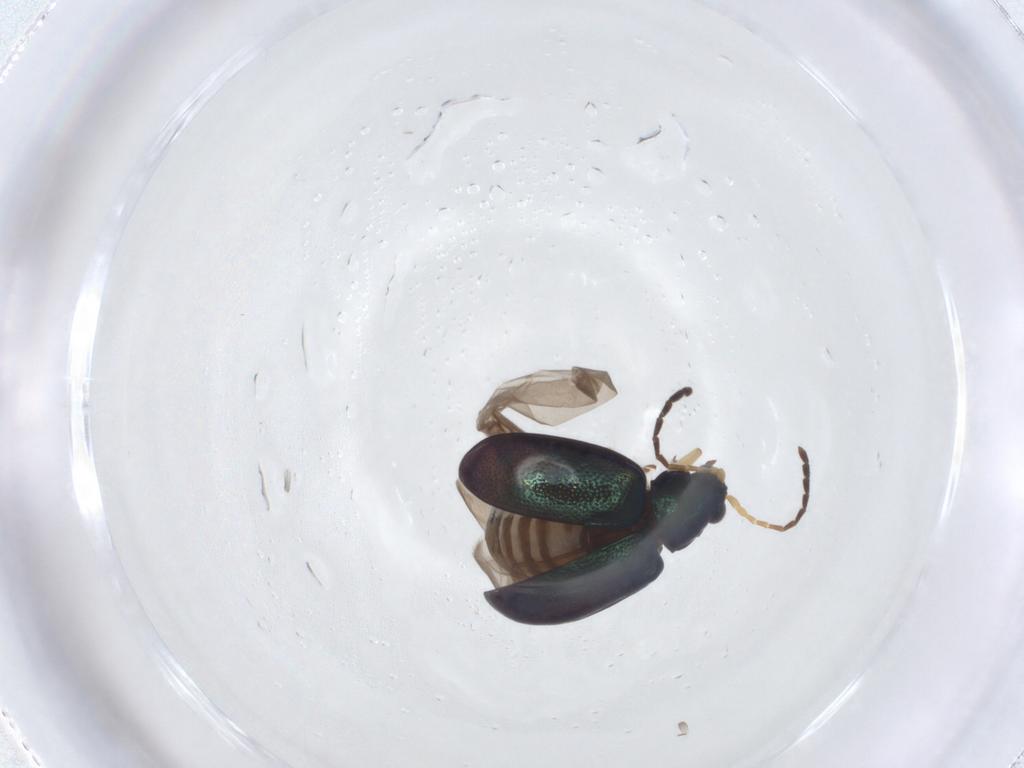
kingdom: Animalia
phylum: Arthropoda
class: Insecta
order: Coleoptera
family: Chrysomelidae
